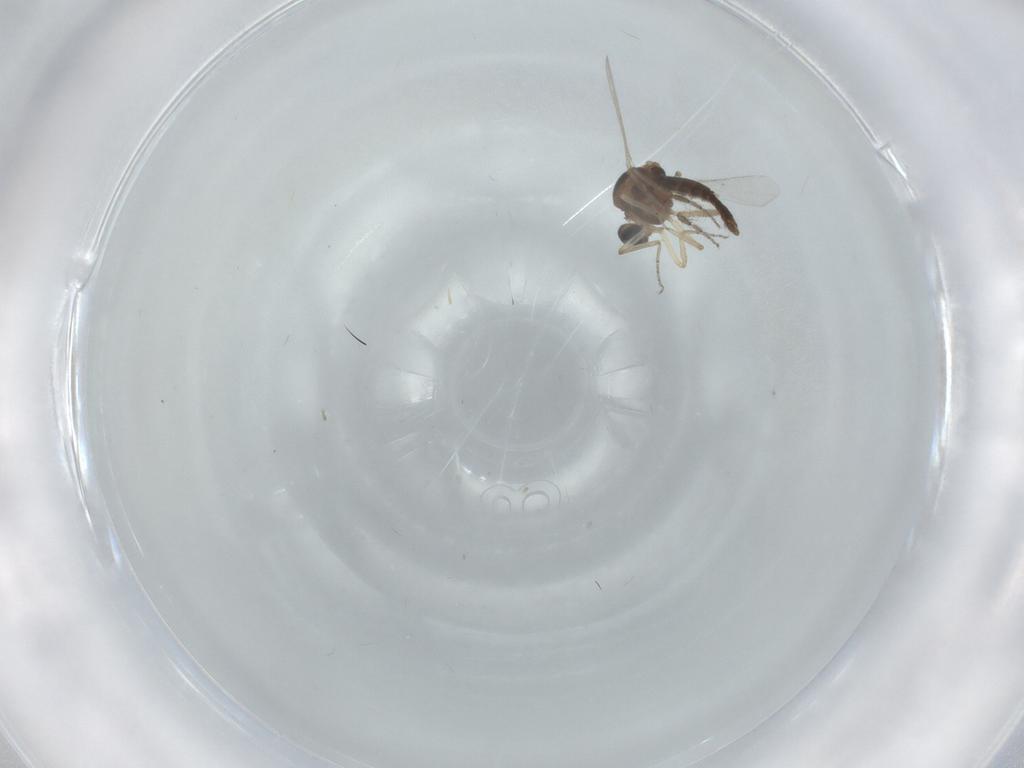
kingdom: Animalia
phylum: Arthropoda
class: Insecta
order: Diptera
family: Ceratopogonidae
